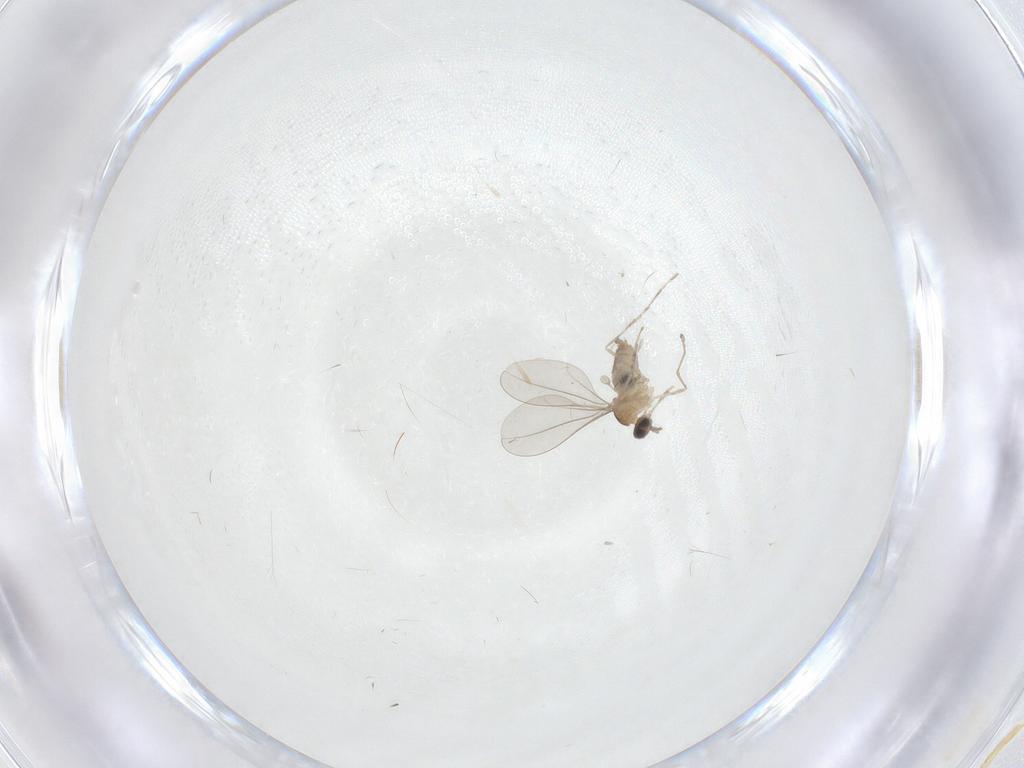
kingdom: Animalia
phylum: Arthropoda
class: Insecta
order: Diptera
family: Cecidomyiidae
